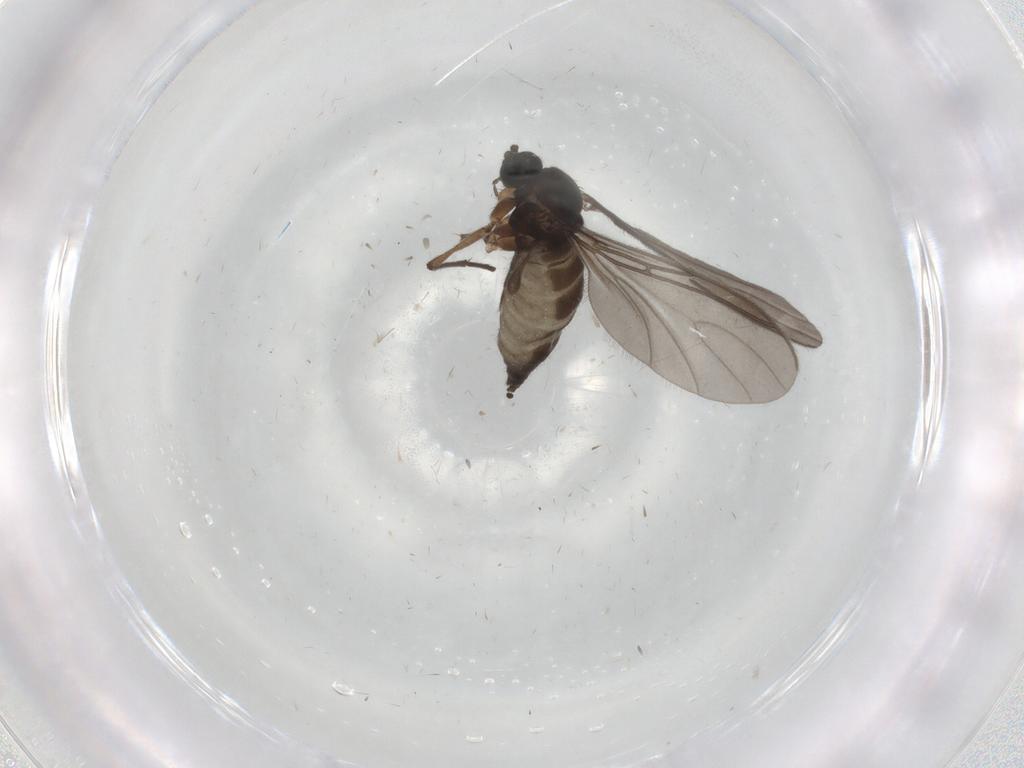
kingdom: Animalia
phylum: Arthropoda
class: Insecta
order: Diptera
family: Sciaridae
